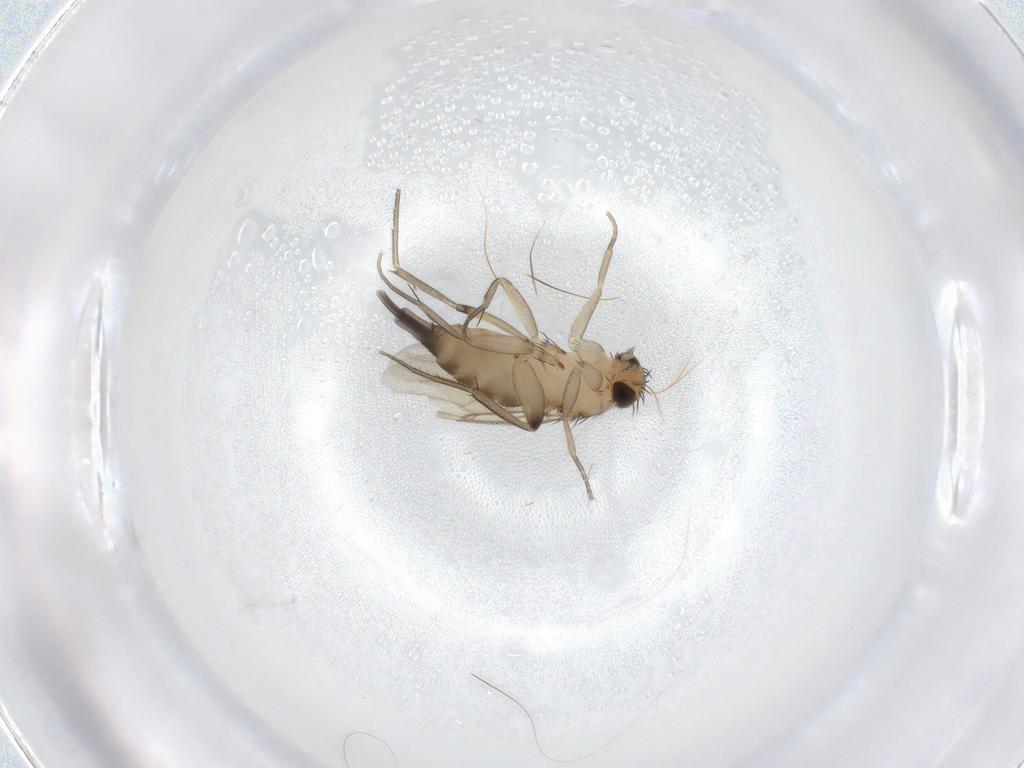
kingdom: Animalia
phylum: Arthropoda
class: Insecta
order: Diptera
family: Phoridae
